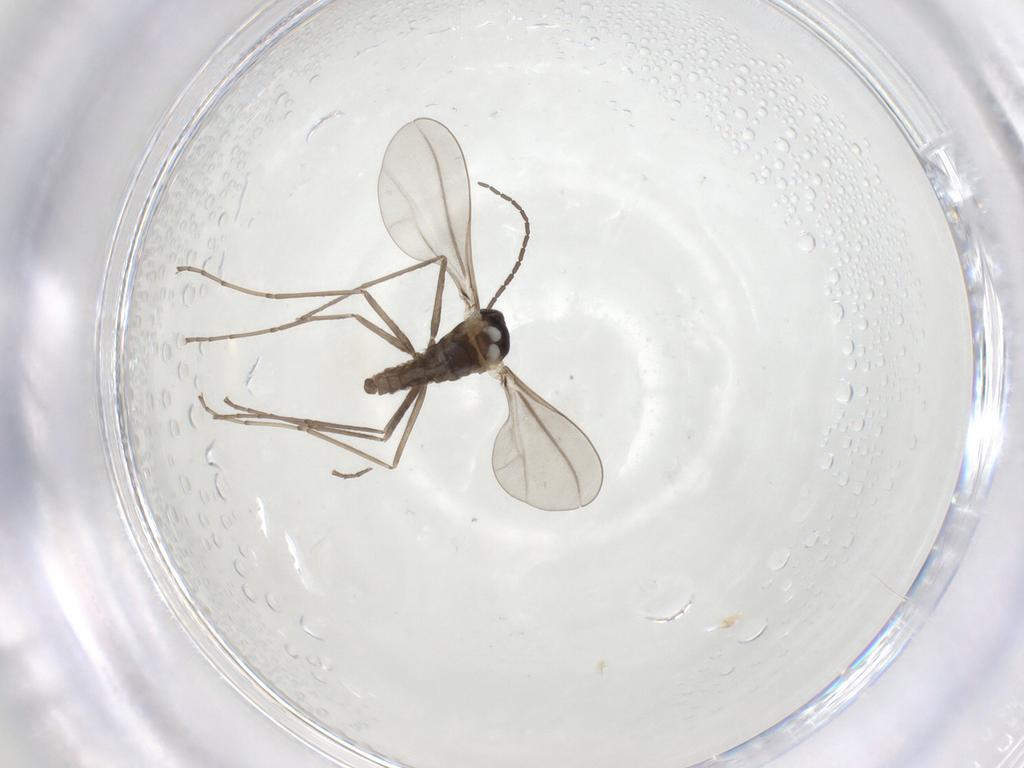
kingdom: Animalia
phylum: Arthropoda
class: Insecta
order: Diptera
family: Cecidomyiidae
